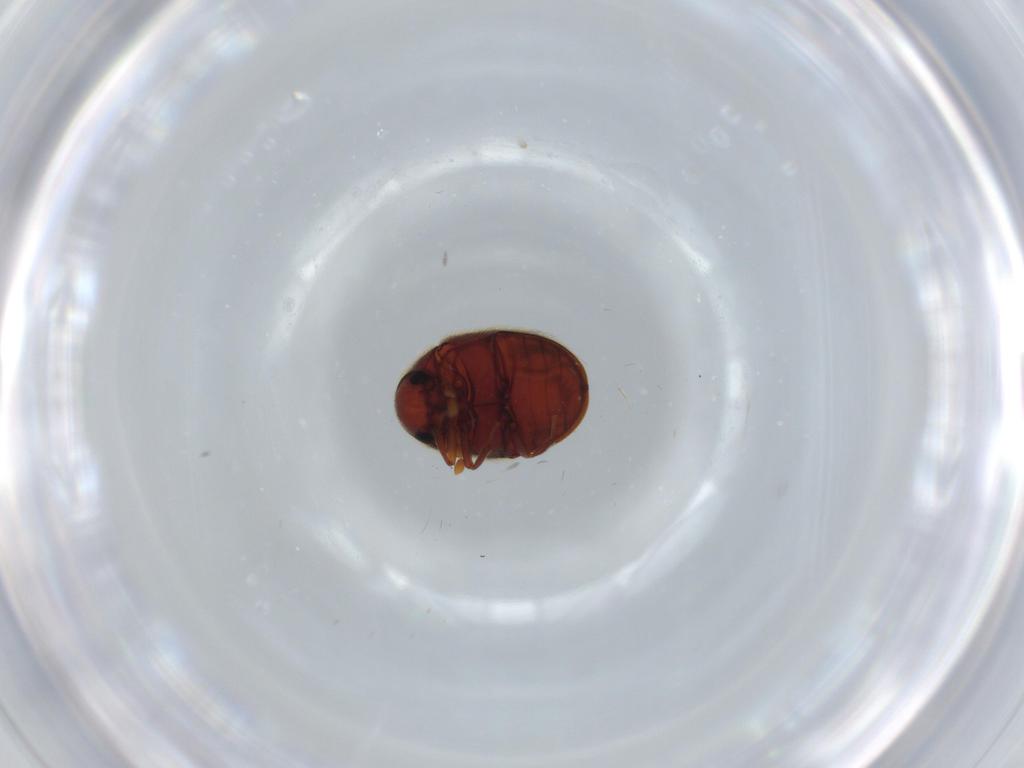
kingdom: Animalia
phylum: Arthropoda
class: Insecta
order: Coleoptera
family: Ptinidae
